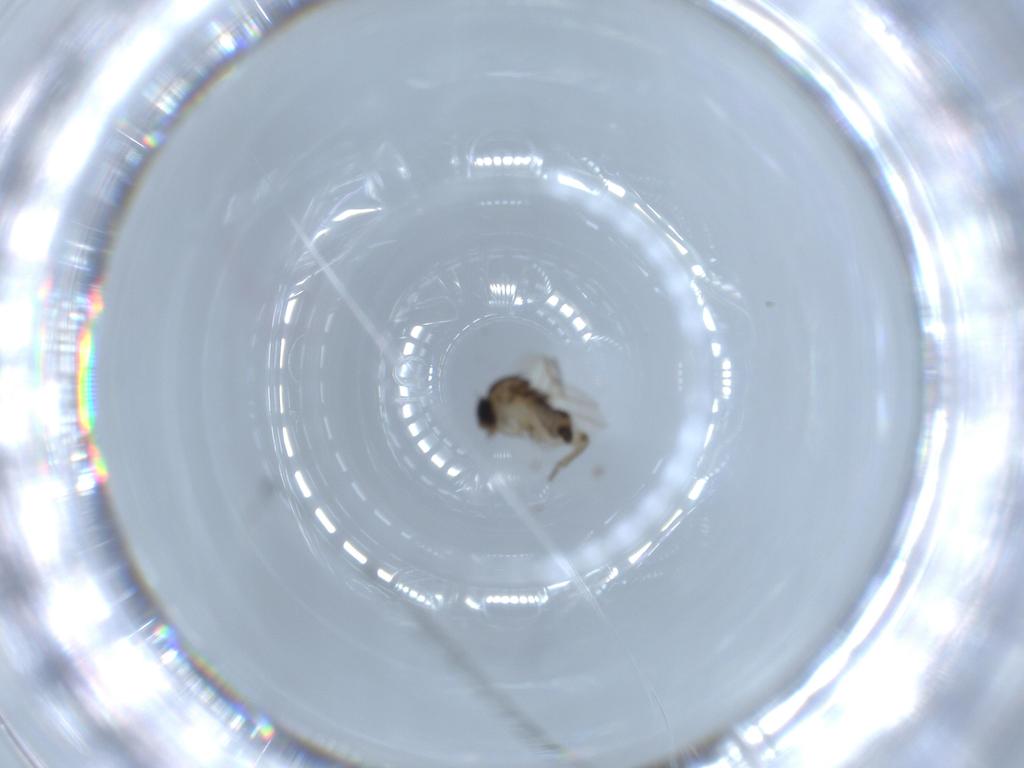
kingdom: Animalia
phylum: Arthropoda
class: Insecta
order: Diptera
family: Phoridae
